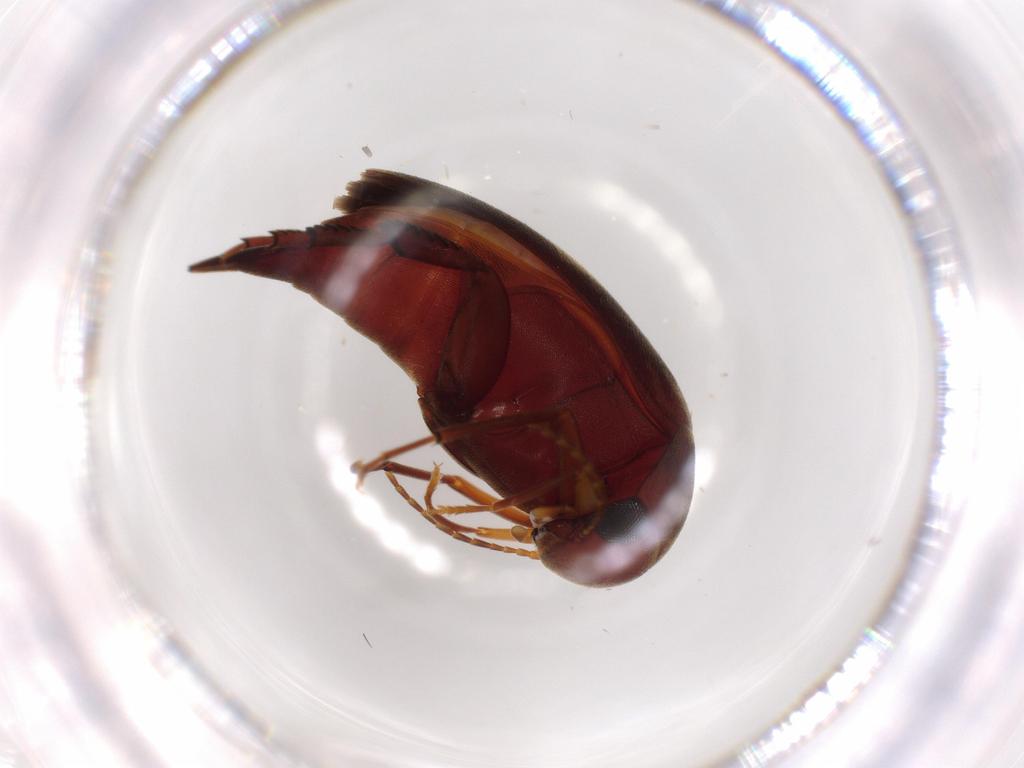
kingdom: Animalia
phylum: Arthropoda
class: Insecta
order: Coleoptera
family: Mordellidae
